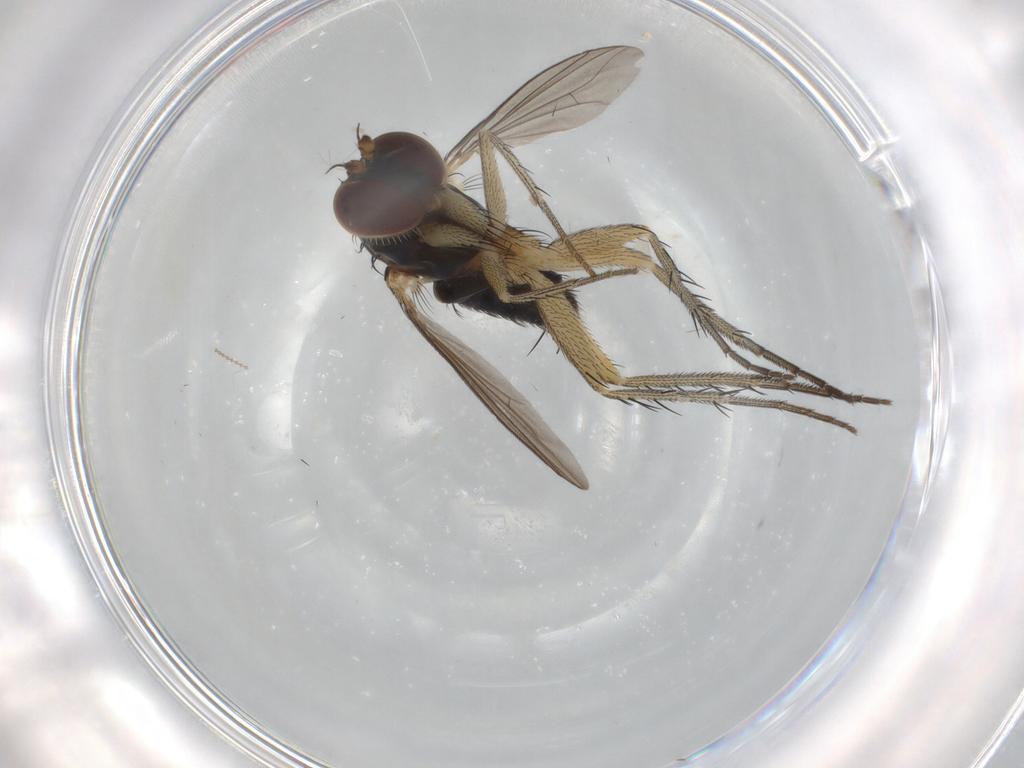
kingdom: Animalia
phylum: Arthropoda
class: Insecta
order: Diptera
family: Dolichopodidae
